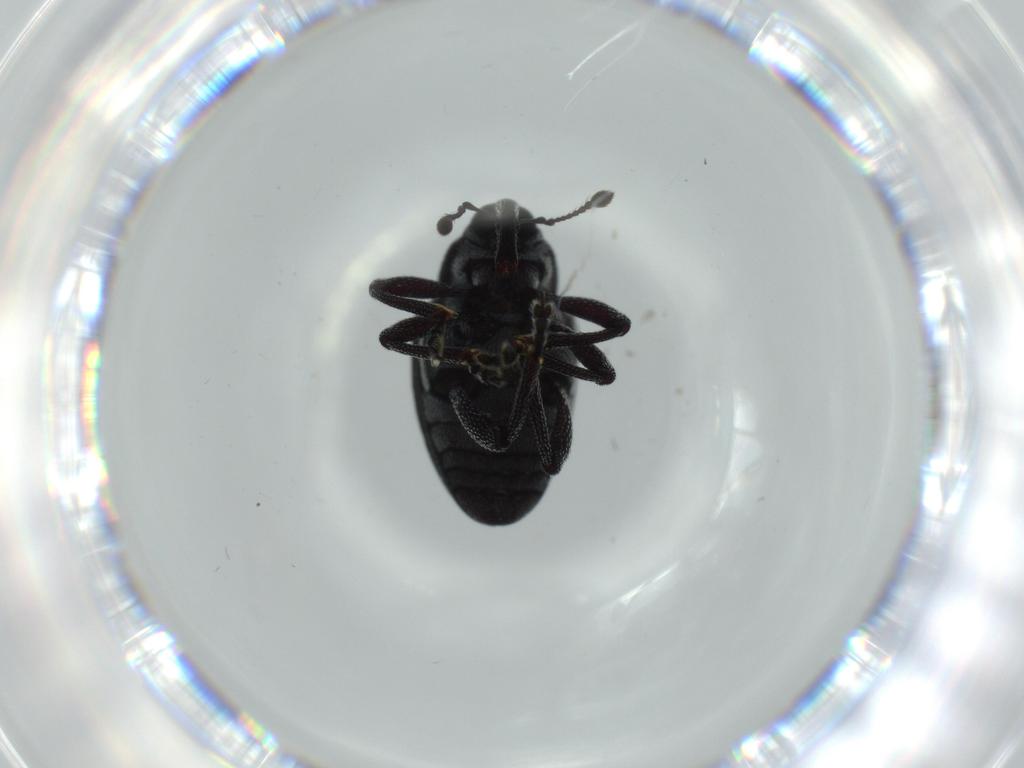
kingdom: Animalia
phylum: Arthropoda
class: Insecta
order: Coleoptera
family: Curculionidae
